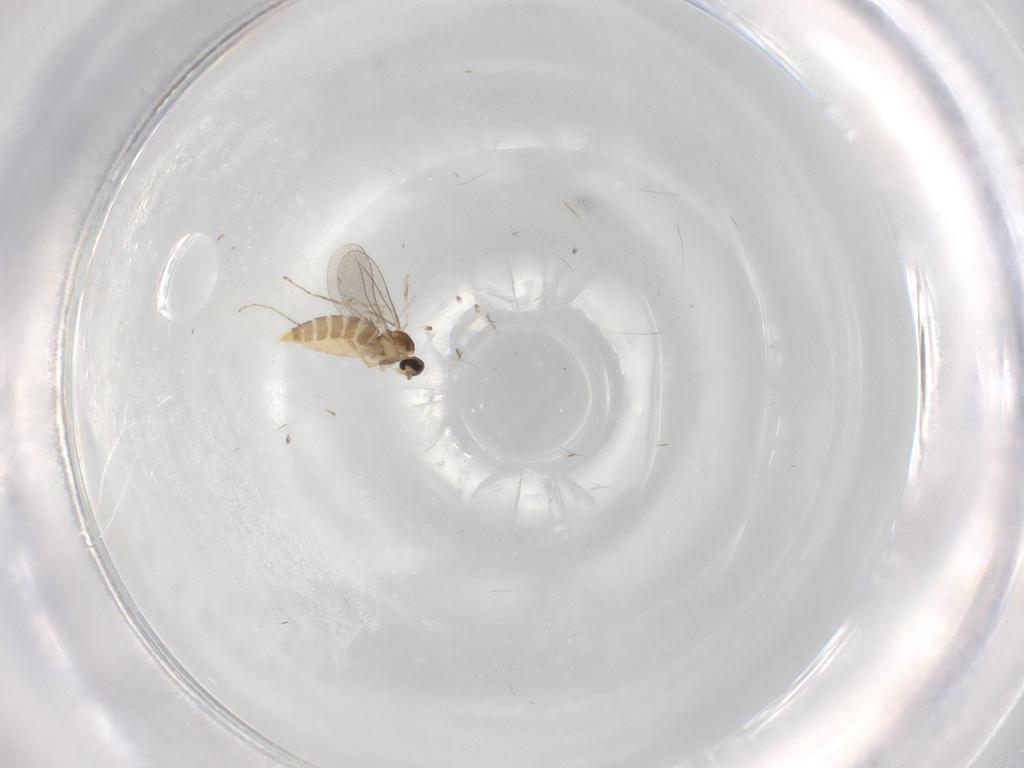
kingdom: Animalia
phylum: Arthropoda
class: Insecta
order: Diptera
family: Cecidomyiidae
